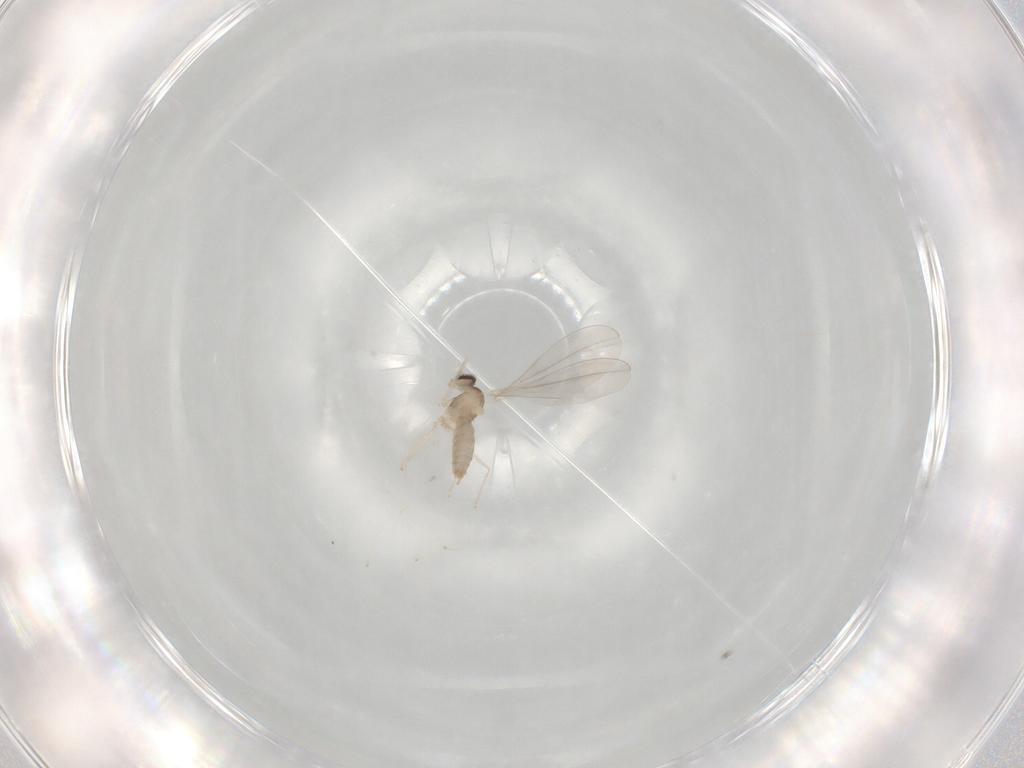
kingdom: Animalia
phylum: Arthropoda
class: Insecta
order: Diptera
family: Cecidomyiidae
